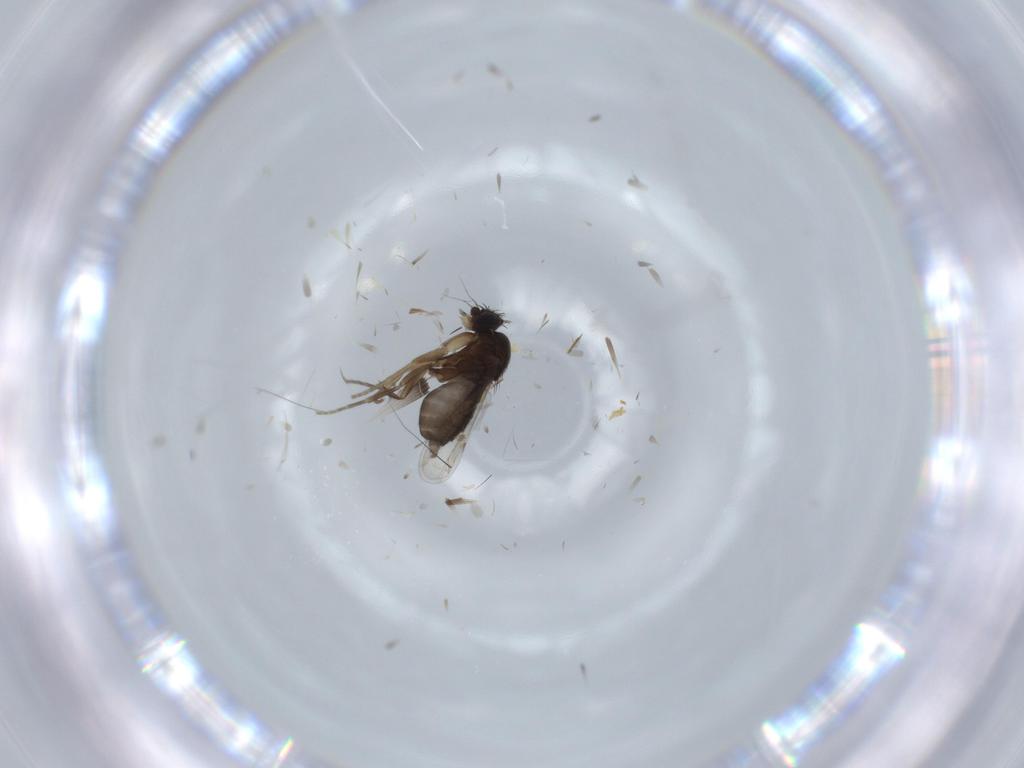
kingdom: Animalia
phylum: Arthropoda
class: Insecta
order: Diptera
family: Phoridae
